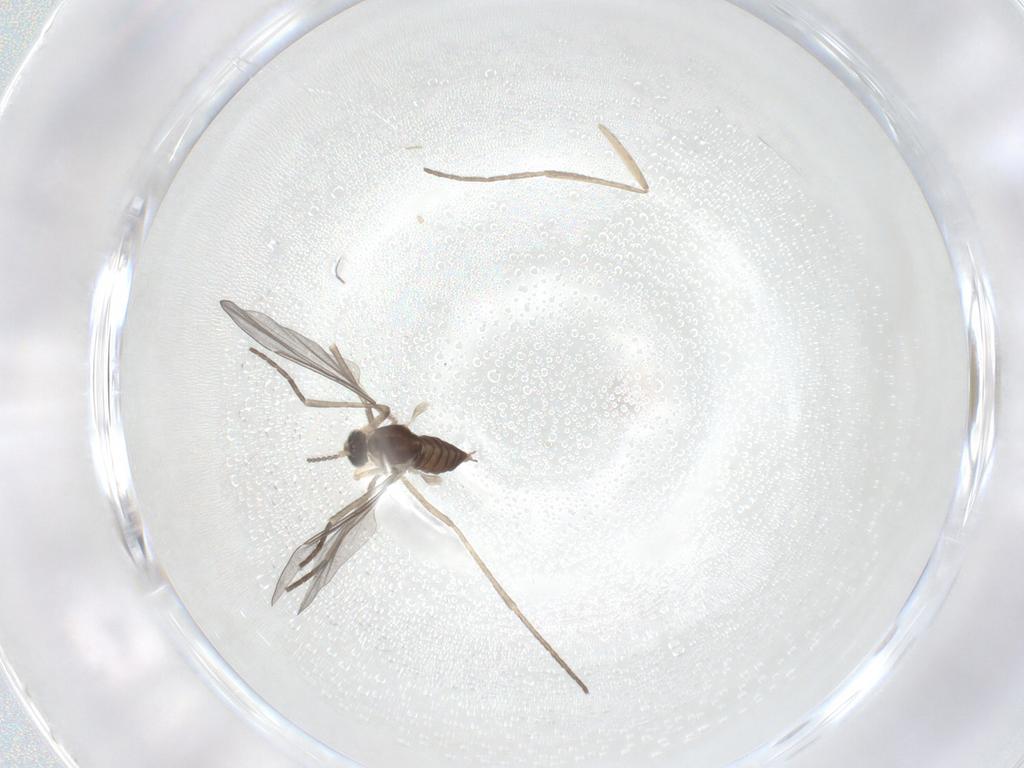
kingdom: Animalia
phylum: Arthropoda
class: Insecta
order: Diptera
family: Cecidomyiidae
